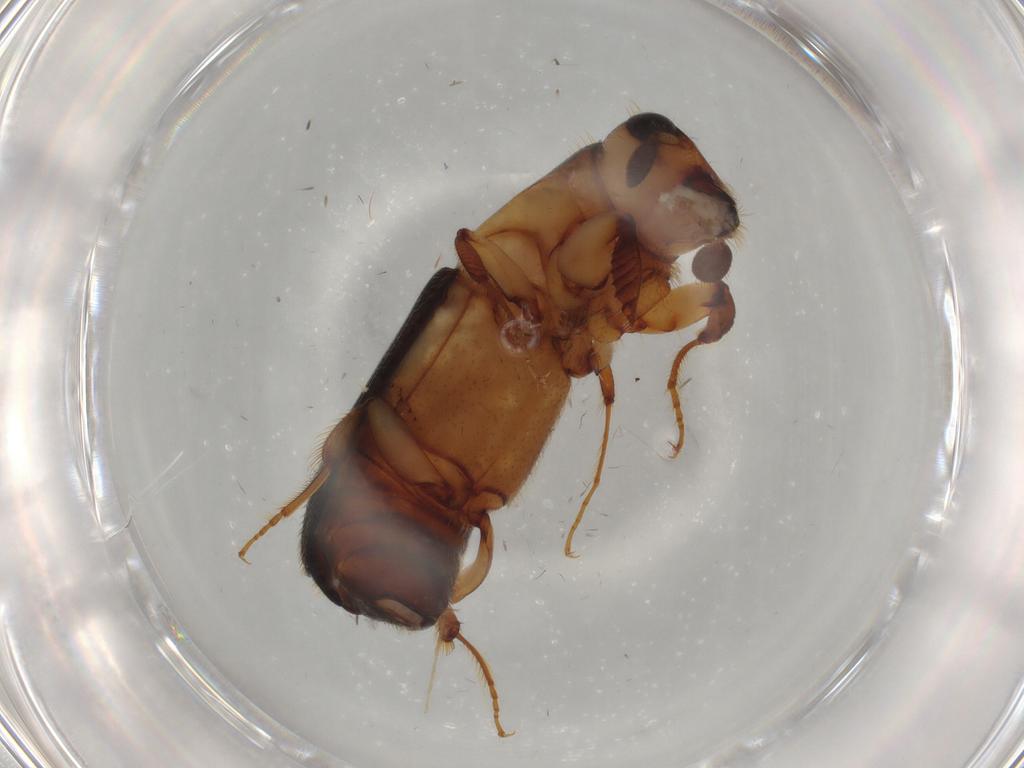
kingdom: Animalia
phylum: Arthropoda
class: Insecta
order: Coleoptera
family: Curculionidae
